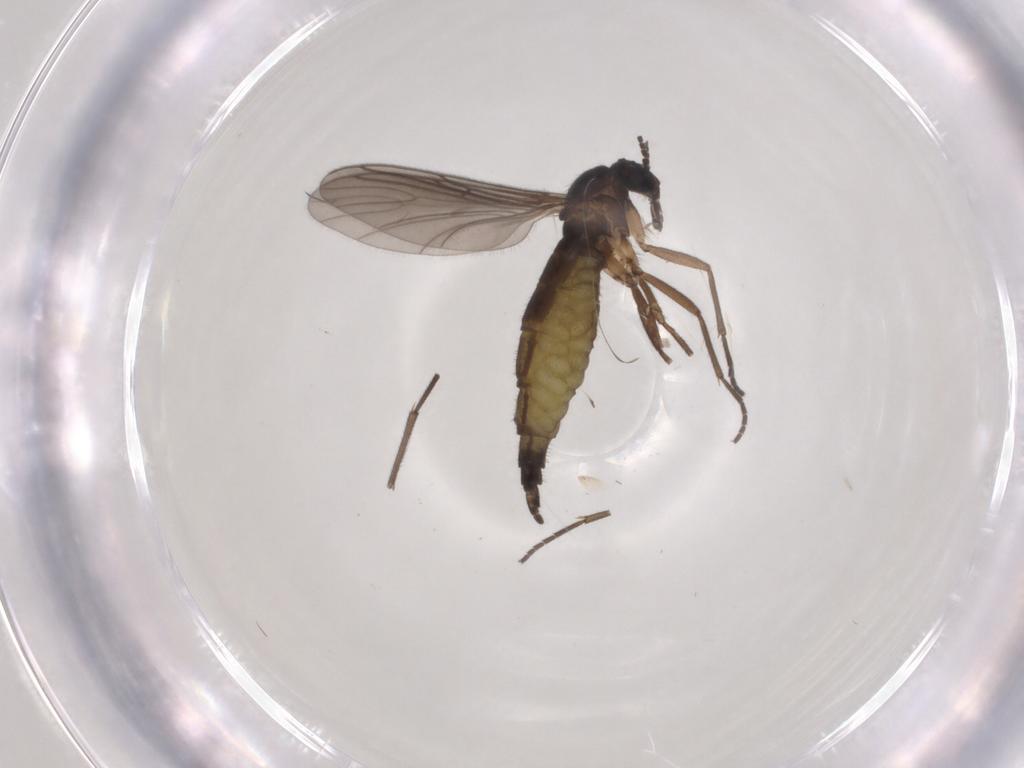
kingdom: Animalia
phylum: Arthropoda
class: Insecta
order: Diptera
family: Sciaridae
